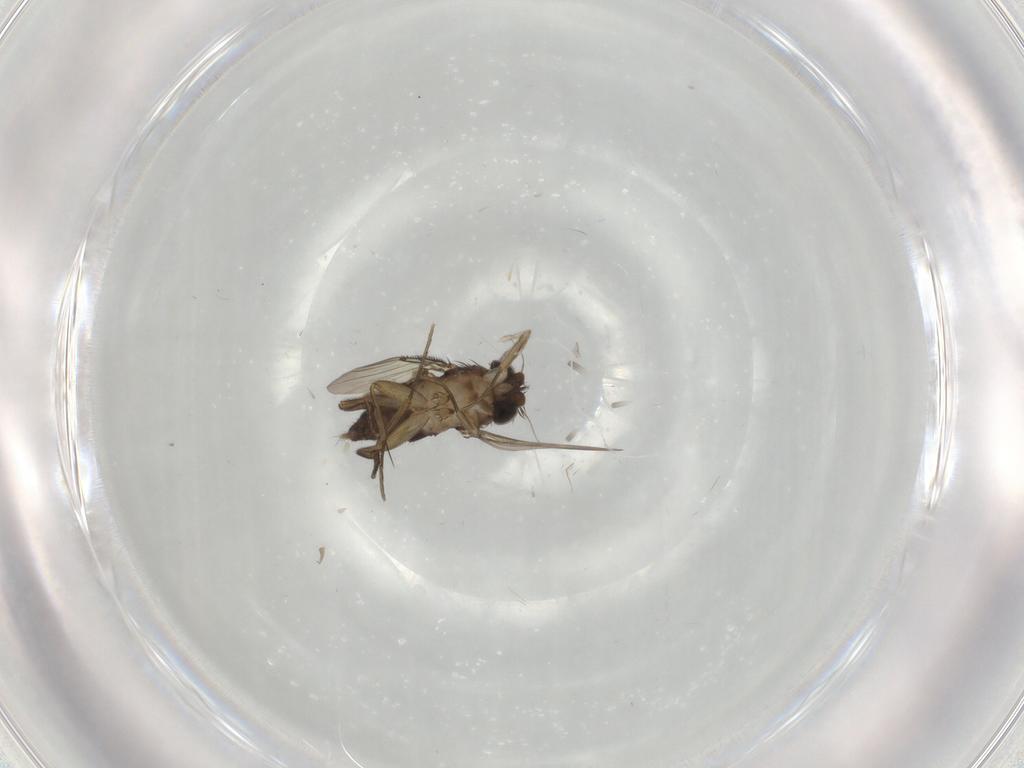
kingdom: Animalia
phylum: Arthropoda
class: Insecta
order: Diptera
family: Phoridae
